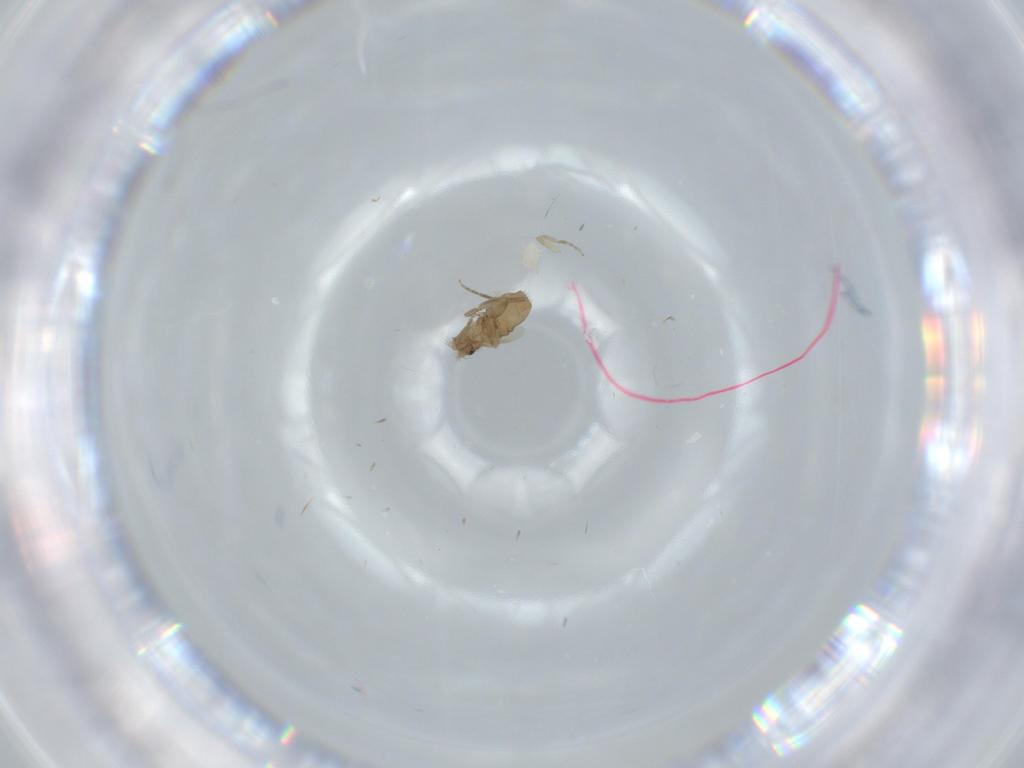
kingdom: Animalia
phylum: Arthropoda
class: Insecta
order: Diptera
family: Phoridae
